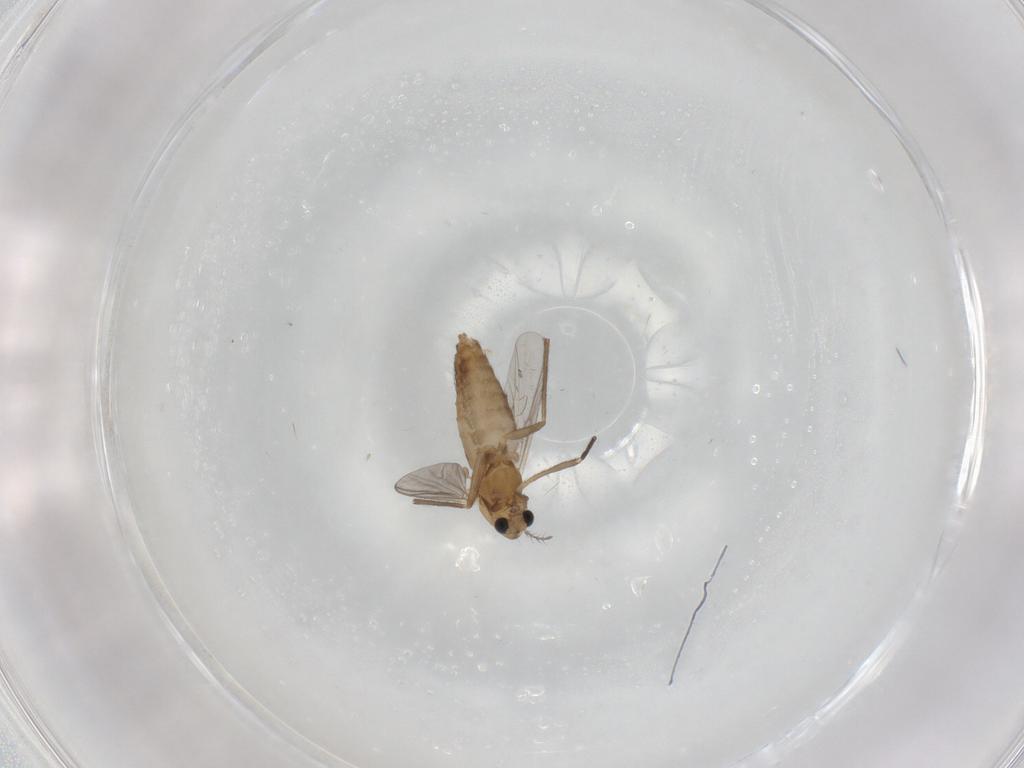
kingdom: Animalia
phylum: Arthropoda
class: Insecta
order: Diptera
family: Chironomidae
